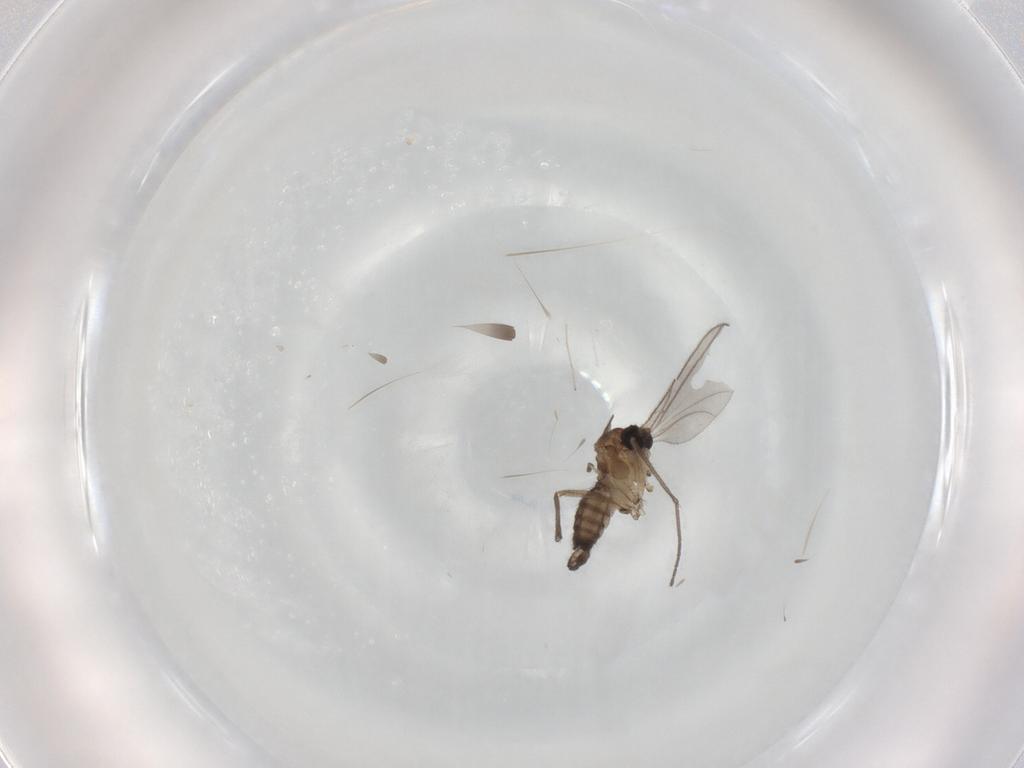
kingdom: Animalia
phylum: Arthropoda
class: Insecta
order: Diptera
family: Sciaridae
